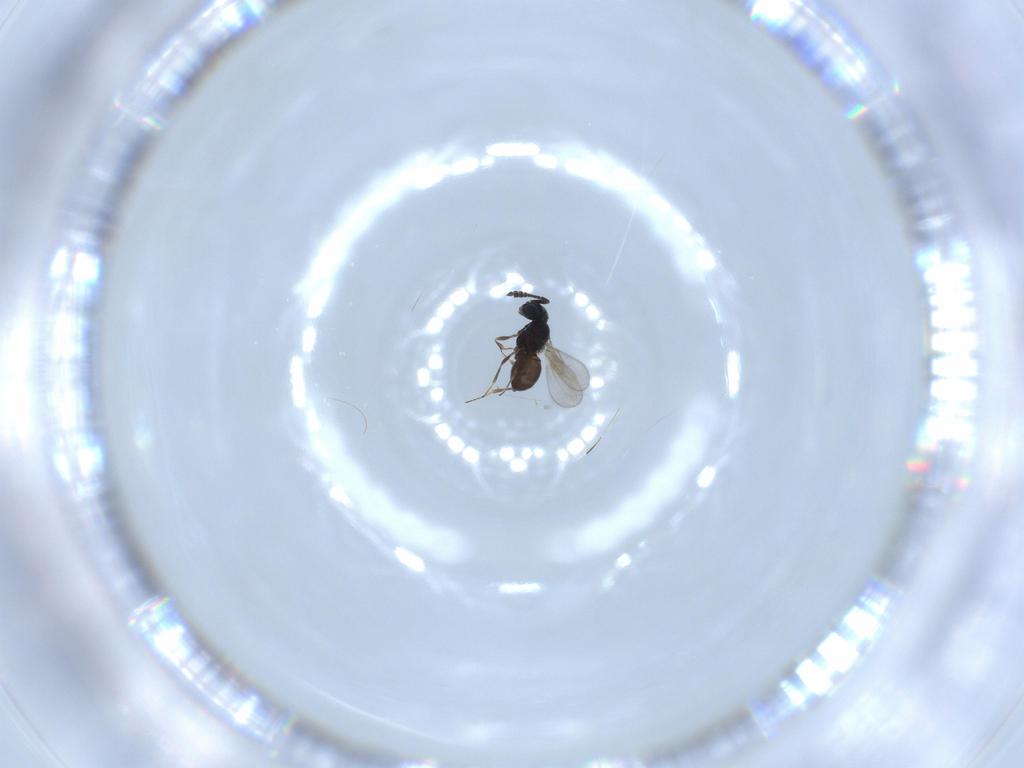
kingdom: Animalia
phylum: Arthropoda
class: Insecta
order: Hymenoptera
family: Scelionidae
